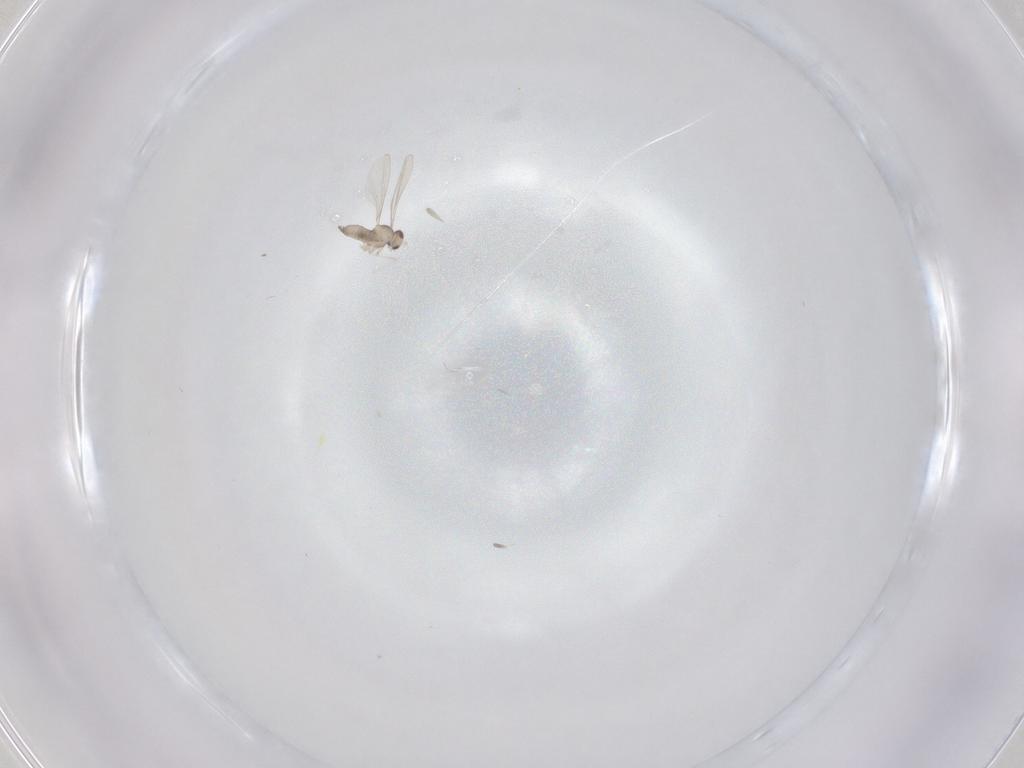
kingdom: Animalia
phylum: Arthropoda
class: Insecta
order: Diptera
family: Cecidomyiidae
